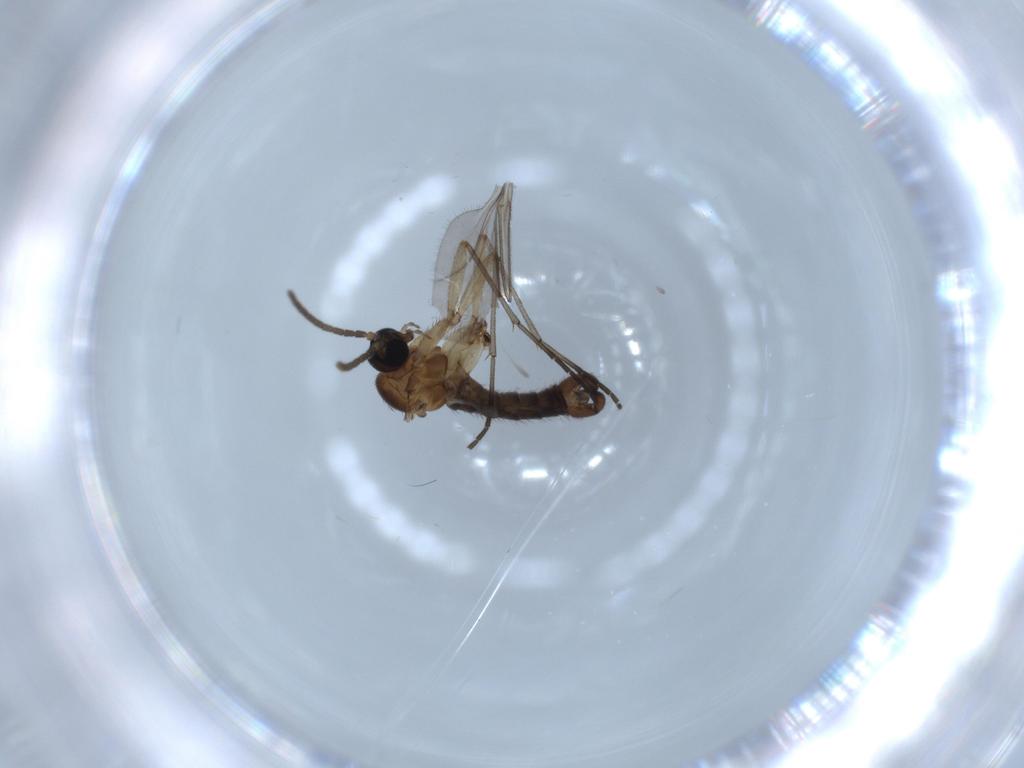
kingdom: Animalia
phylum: Arthropoda
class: Insecta
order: Diptera
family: Sciaridae
